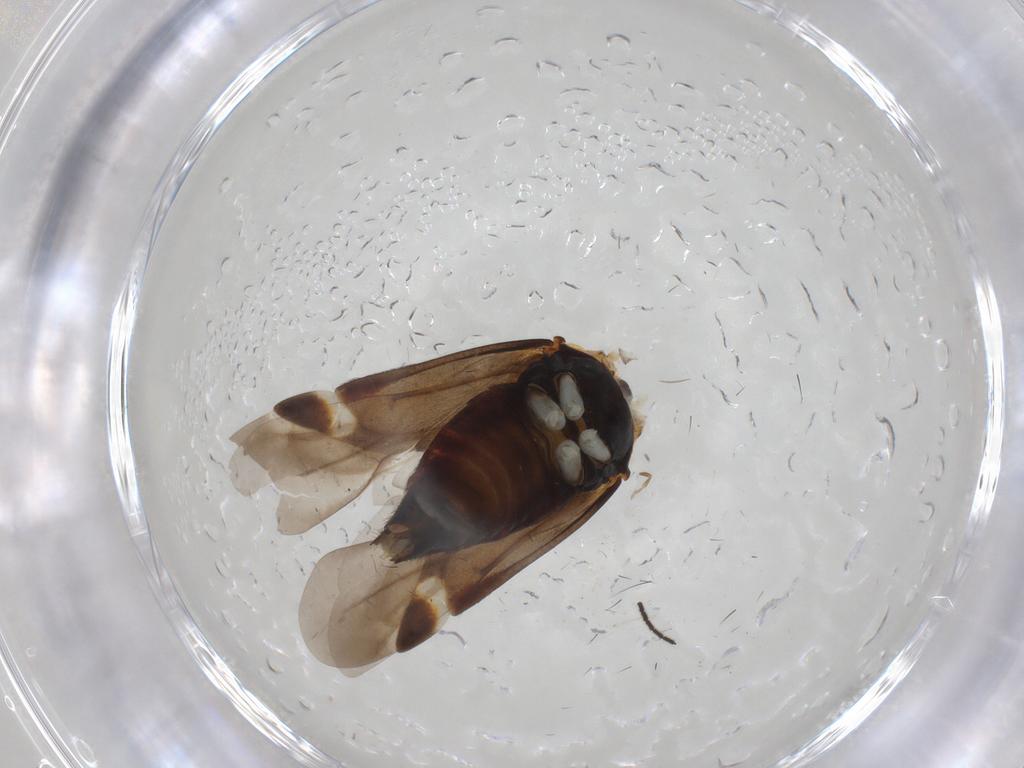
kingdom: Animalia
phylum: Arthropoda
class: Insecta
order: Hemiptera
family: Miridae
